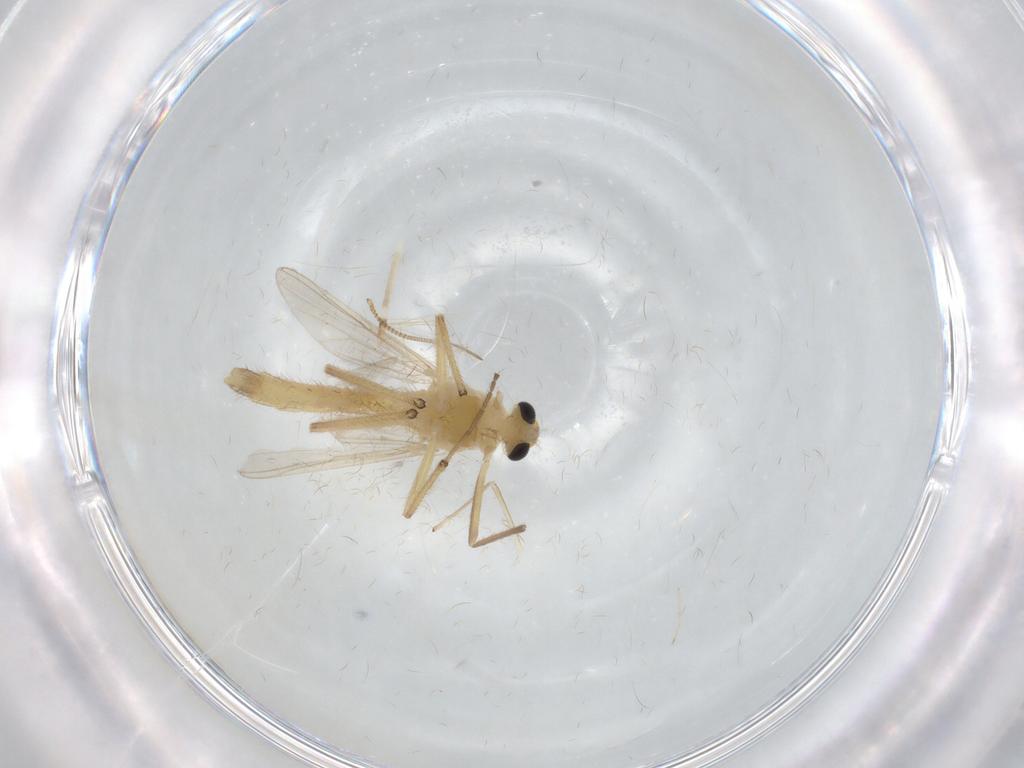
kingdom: Animalia
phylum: Arthropoda
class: Insecta
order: Diptera
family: Chironomidae
